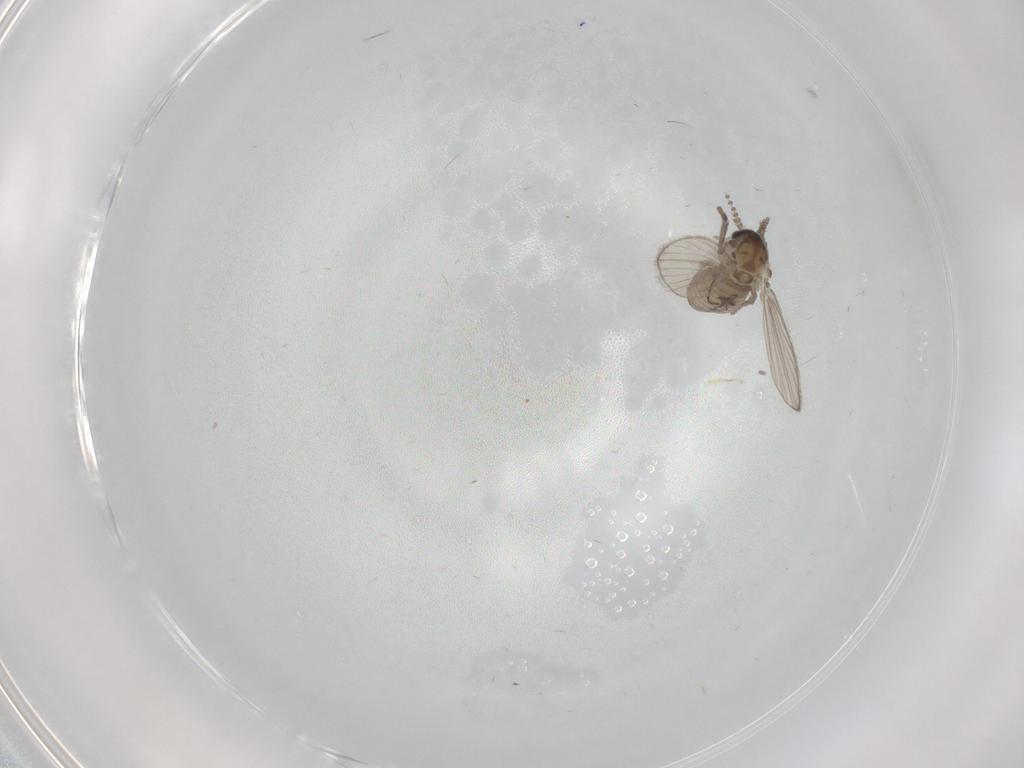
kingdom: Animalia
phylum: Arthropoda
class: Insecta
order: Diptera
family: Phoridae
